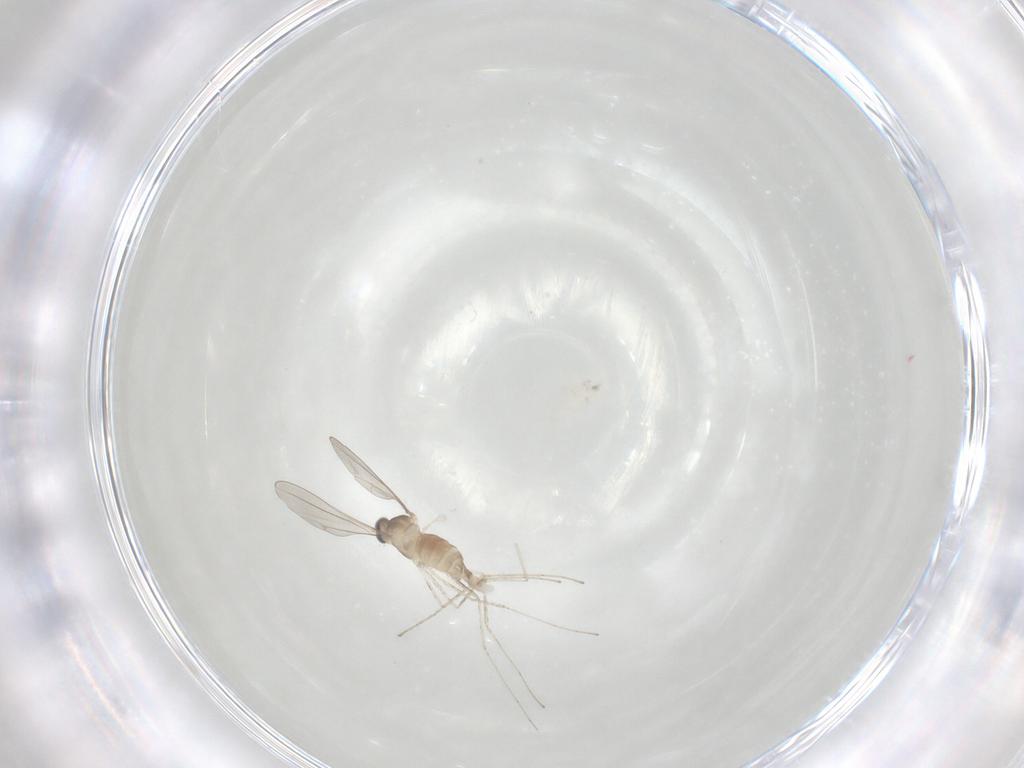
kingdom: Animalia
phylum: Arthropoda
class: Insecta
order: Diptera
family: Cecidomyiidae
